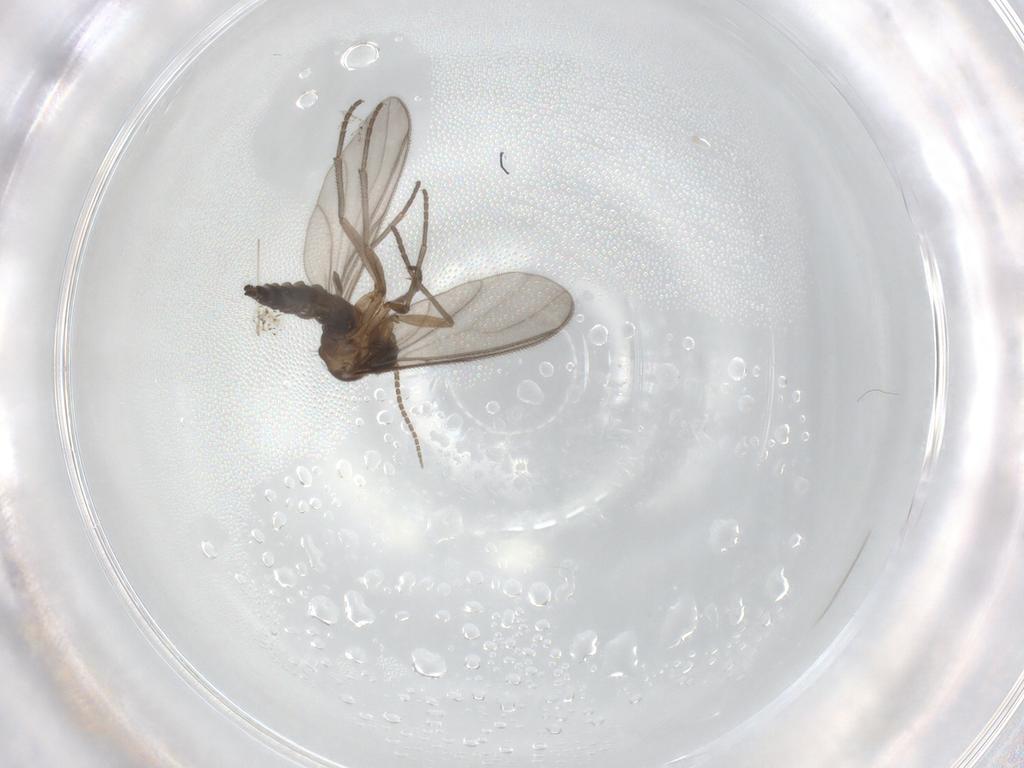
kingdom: Animalia
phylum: Arthropoda
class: Insecta
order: Diptera
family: Sciaridae
